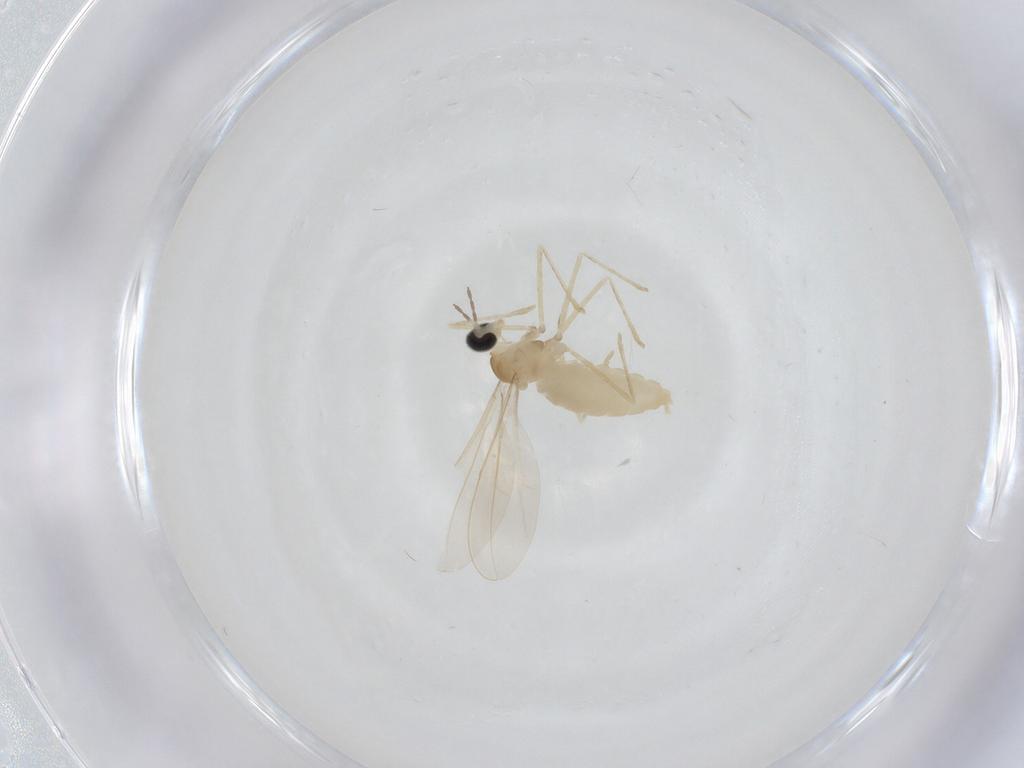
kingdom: Animalia
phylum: Arthropoda
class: Insecta
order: Diptera
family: Cecidomyiidae
